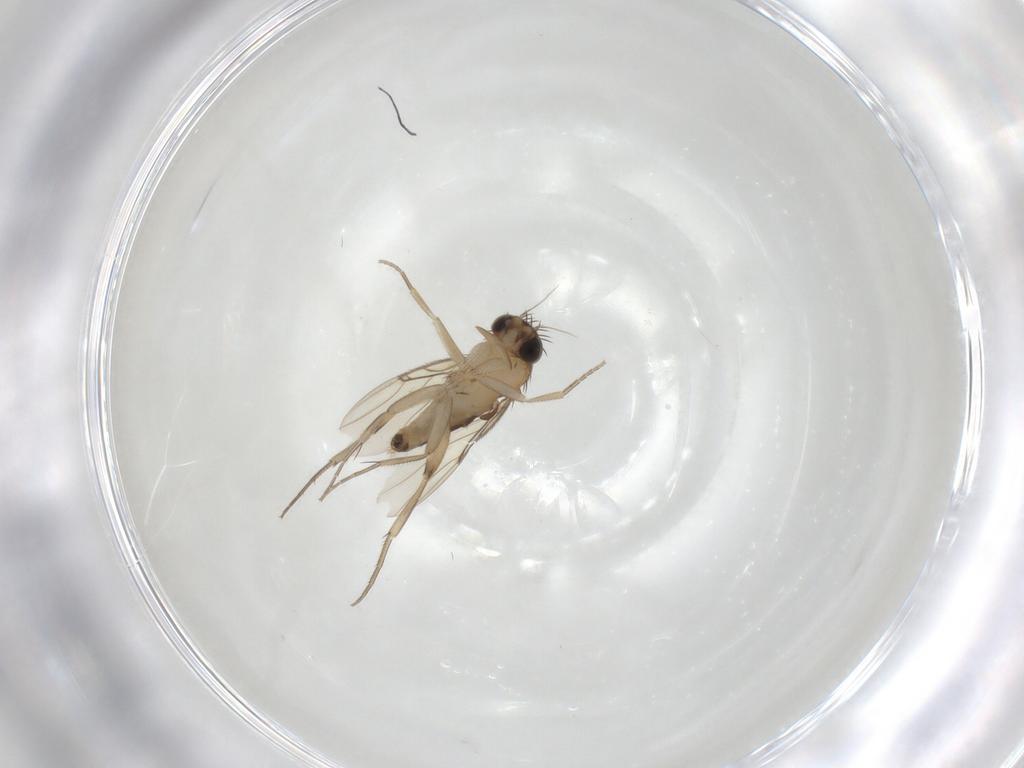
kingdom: Animalia
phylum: Arthropoda
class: Insecta
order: Diptera
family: Phoridae
